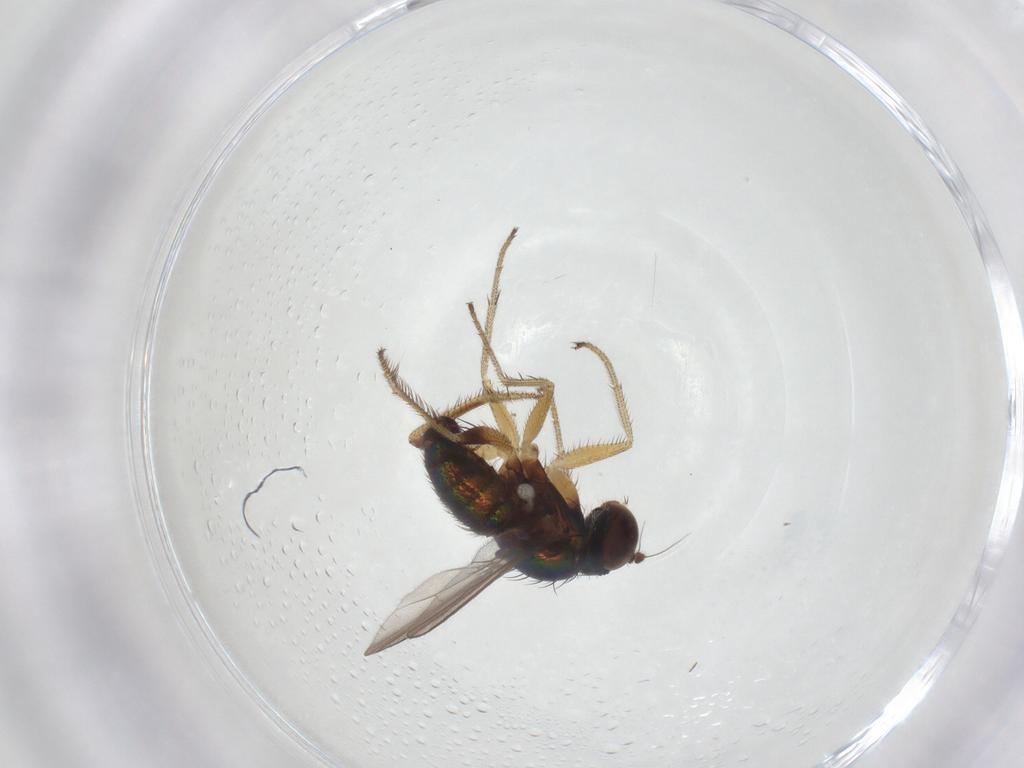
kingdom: Animalia
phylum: Arthropoda
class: Insecta
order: Diptera
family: Dolichopodidae
